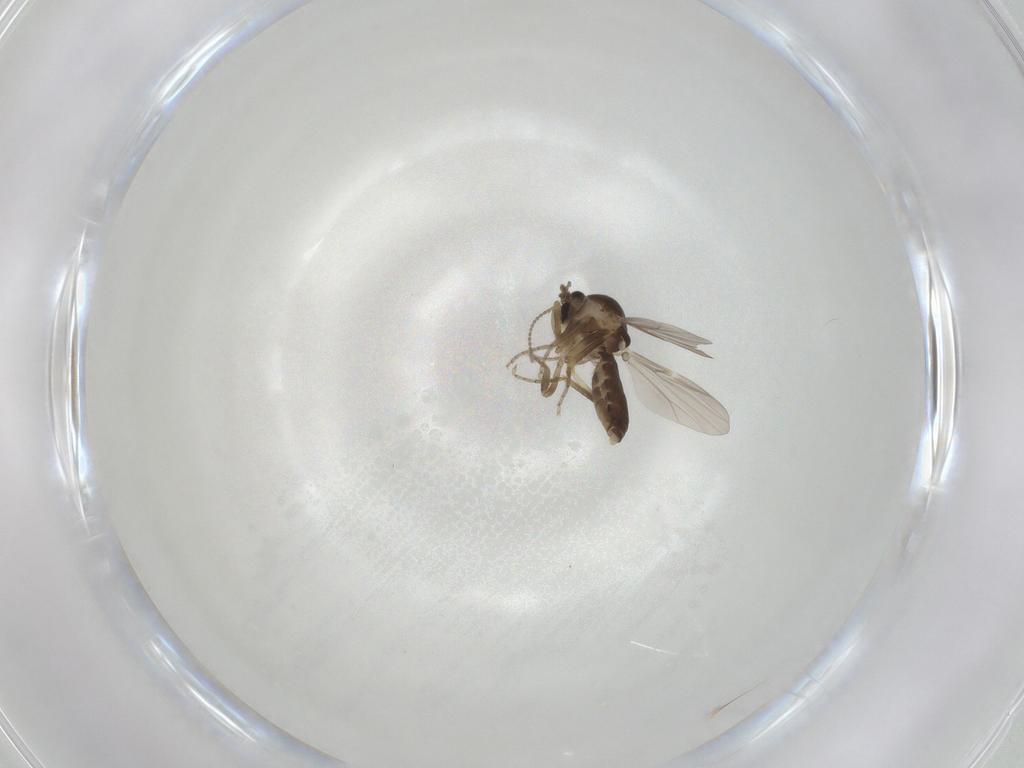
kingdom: Animalia
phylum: Arthropoda
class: Insecta
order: Diptera
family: Ceratopogonidae
